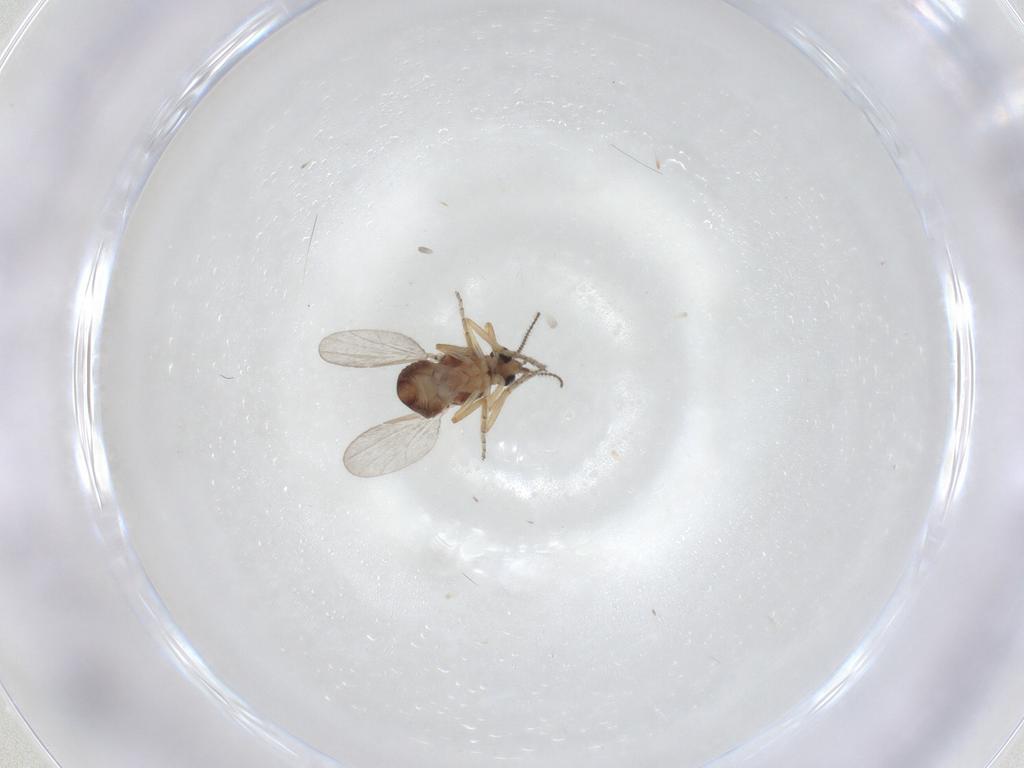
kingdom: Animalia
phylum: Arthropoda
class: Insecta
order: Diptera
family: Ceratopogonidae
